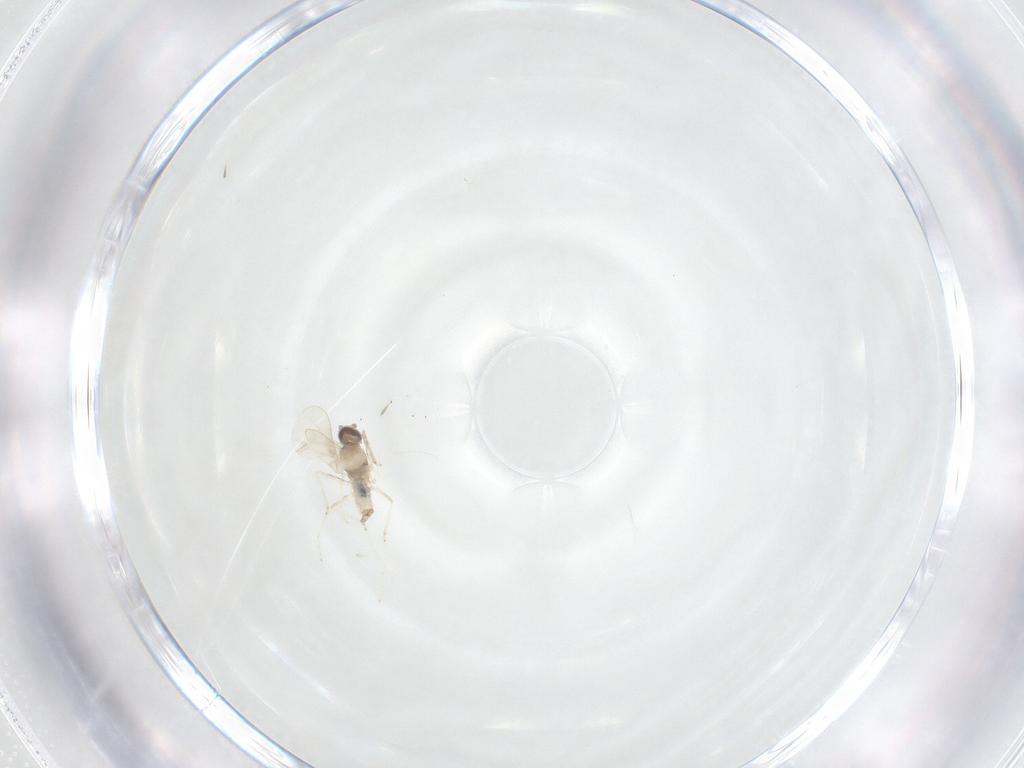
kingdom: Animalia
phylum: Arthropoda
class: Insecta
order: Diptera
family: Cecidomyiidae
